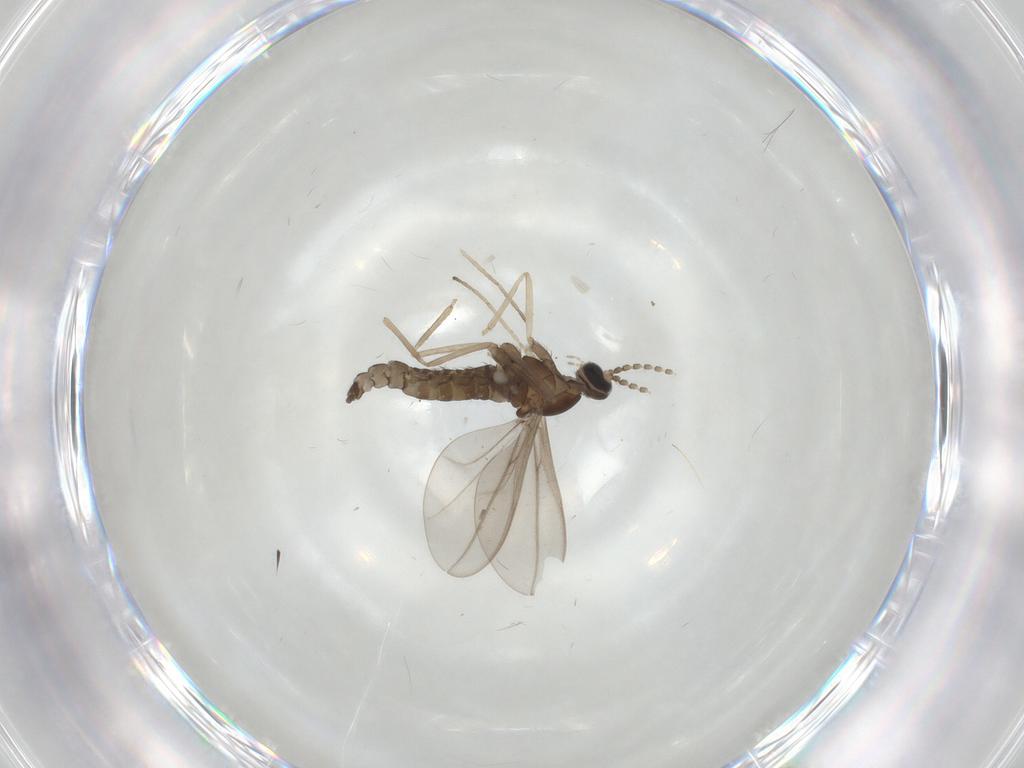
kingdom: Animalia
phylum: Arthropoda
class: Insecta
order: Diptera
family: Cecidomyiidae
